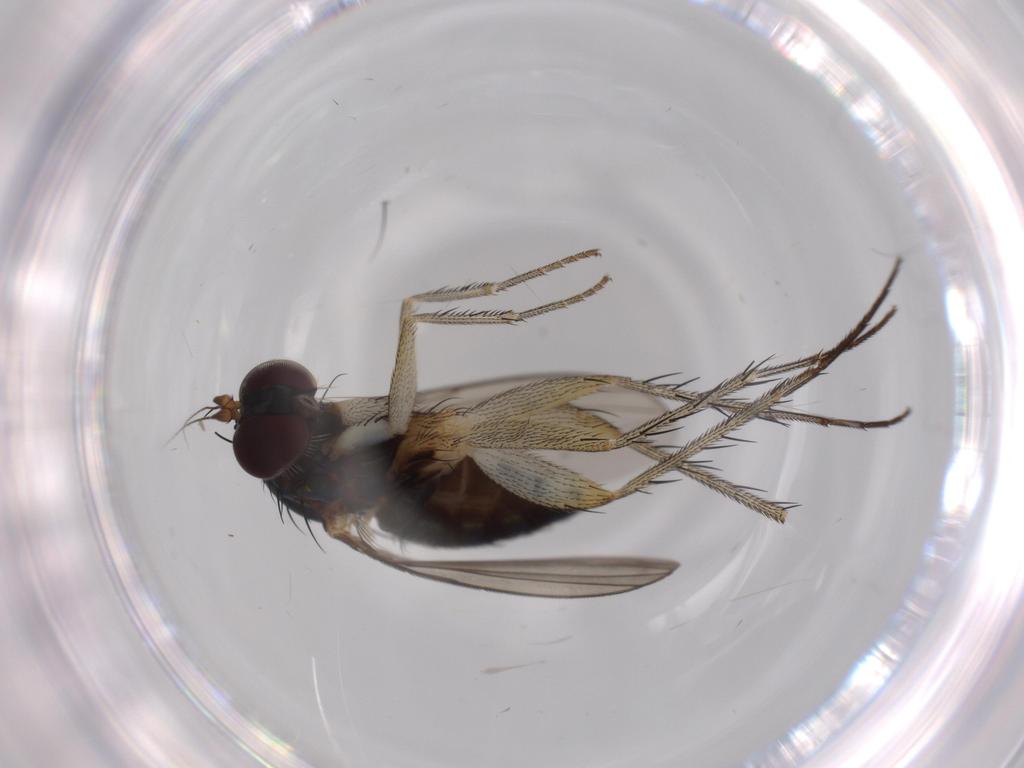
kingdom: Animalia
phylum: Arthropoda
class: Insecta
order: Diptera
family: Dolichopodidae
